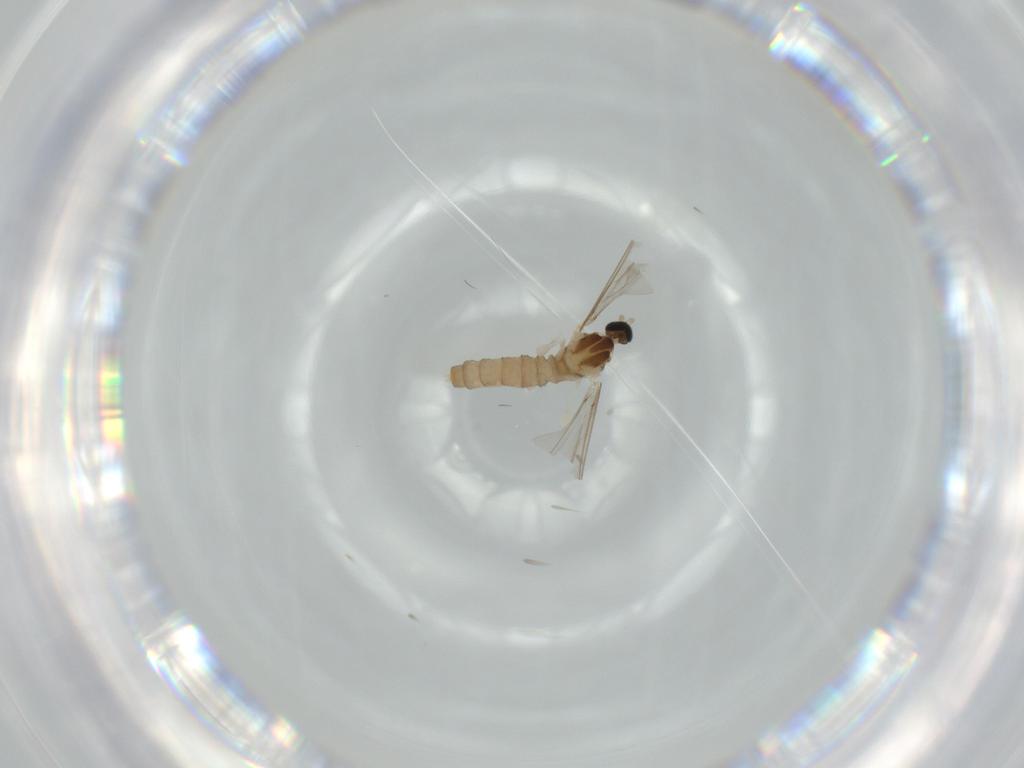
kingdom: Animalia
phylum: Arthropoda
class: Insecta
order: Diptera
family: Cecidomyiidae
